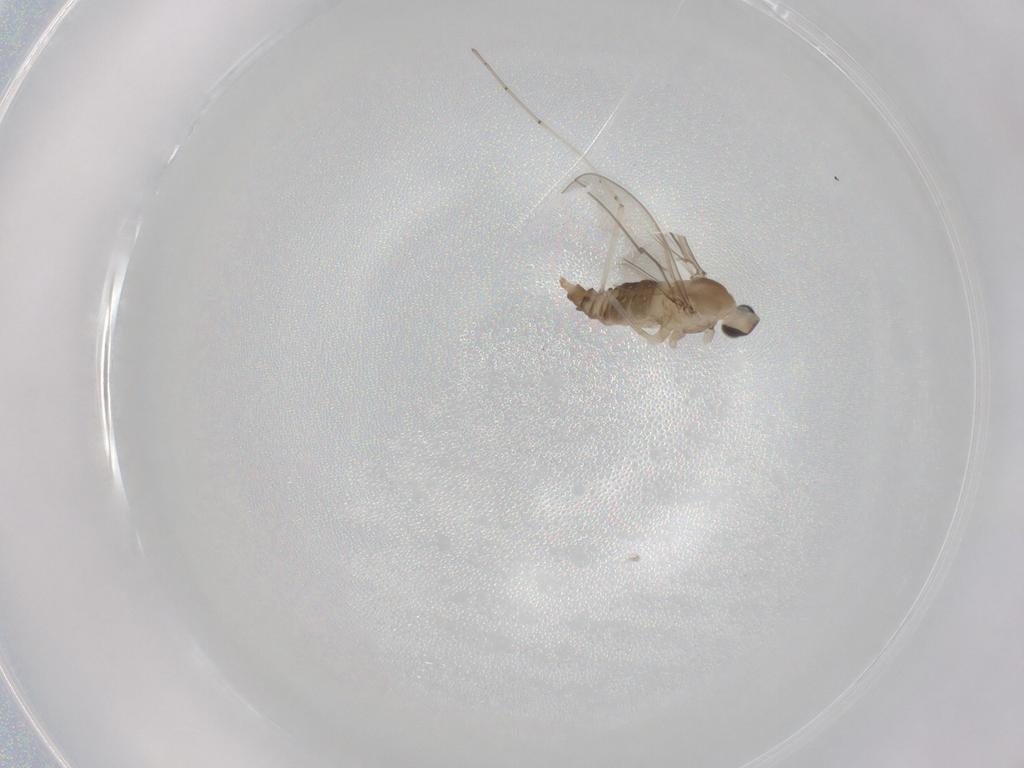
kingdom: Animalia
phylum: Arthropoda
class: Insecta
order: Diptera
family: Cecidomyiidae
